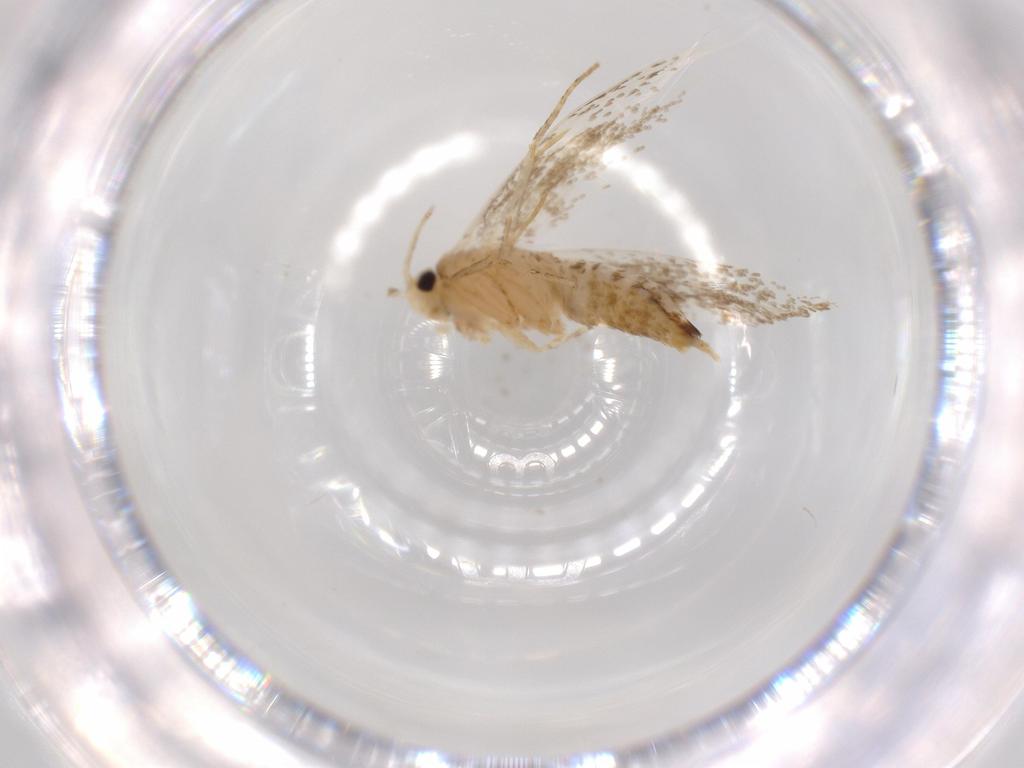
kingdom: Animalia
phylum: Arthropoda
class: Insecta
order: Lepidoptera
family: Tineidae
